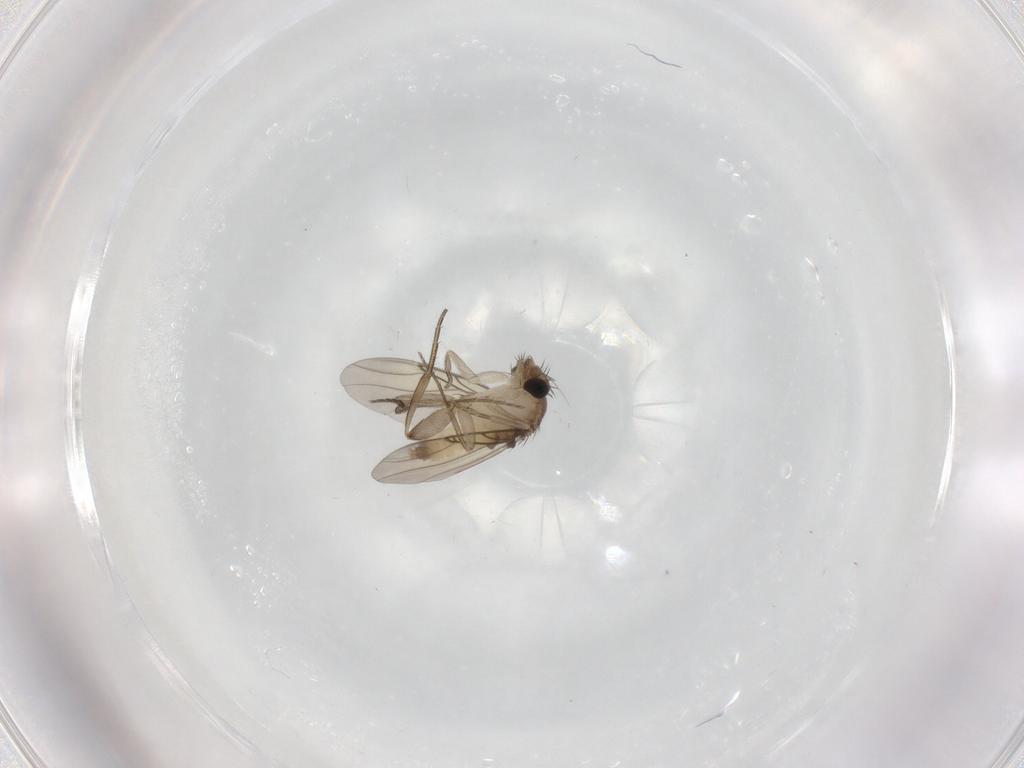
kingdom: Animalia
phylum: Arthropoda
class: Insecta
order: Diptera
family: Phoridae
